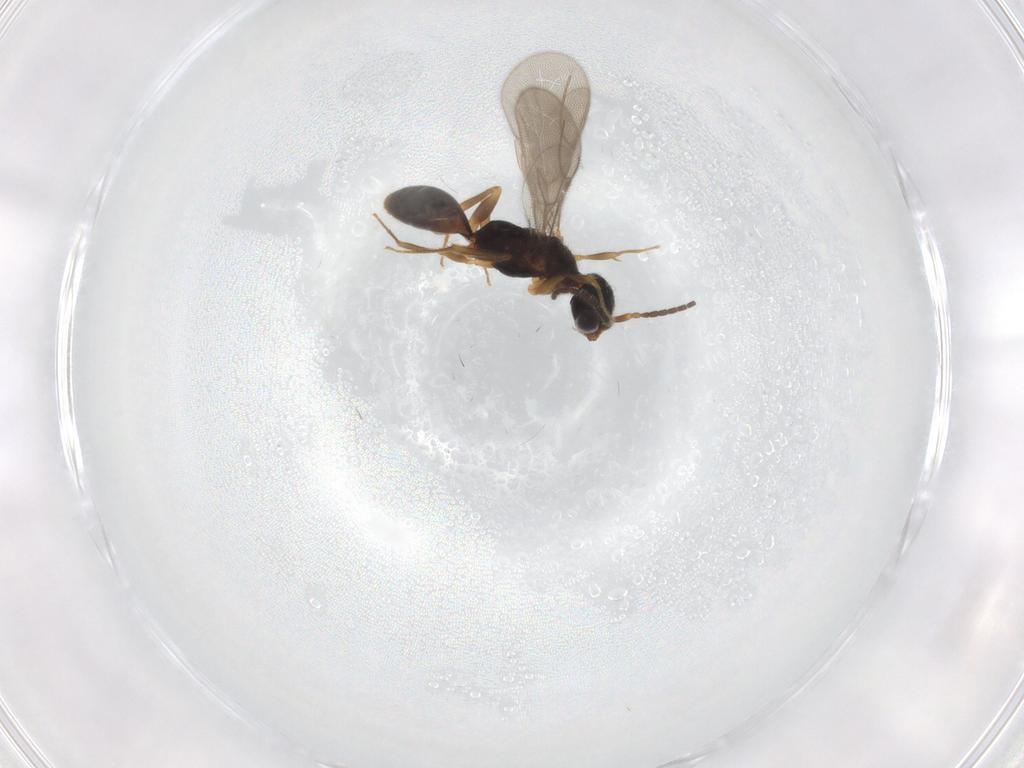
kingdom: Animalia
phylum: Arthropoda
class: Insecta
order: Hymenoptera
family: Bethylidae
